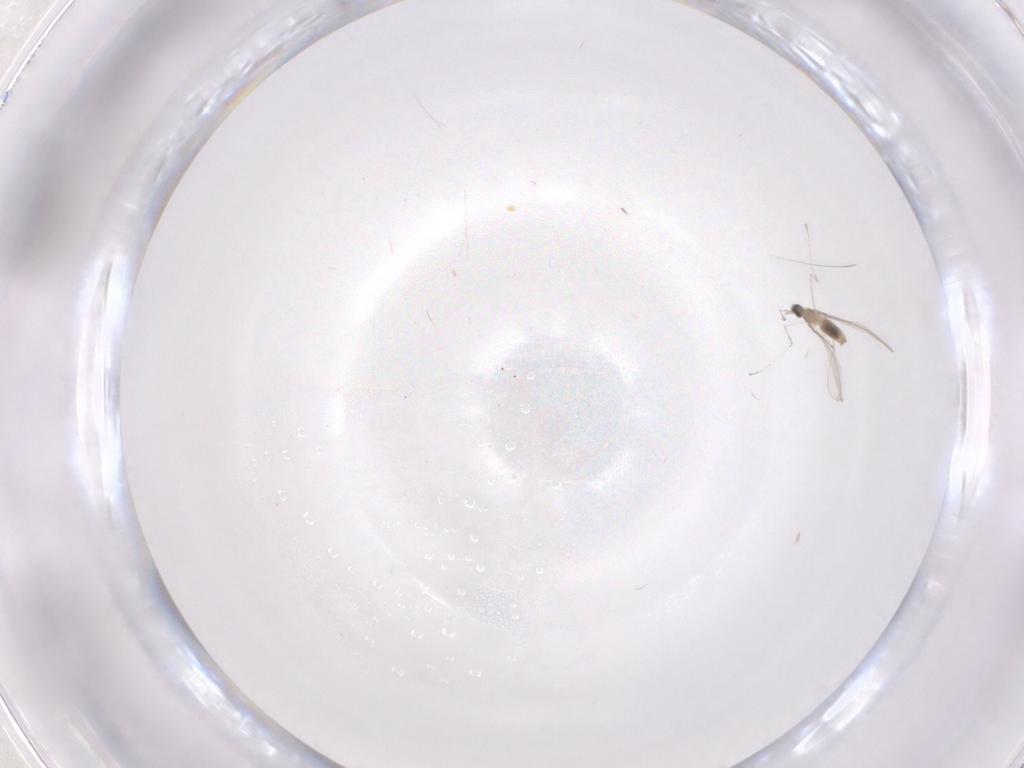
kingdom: Animalia
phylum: Arthropoda
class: Insecta
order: Diptera
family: Cecidomyiidae
